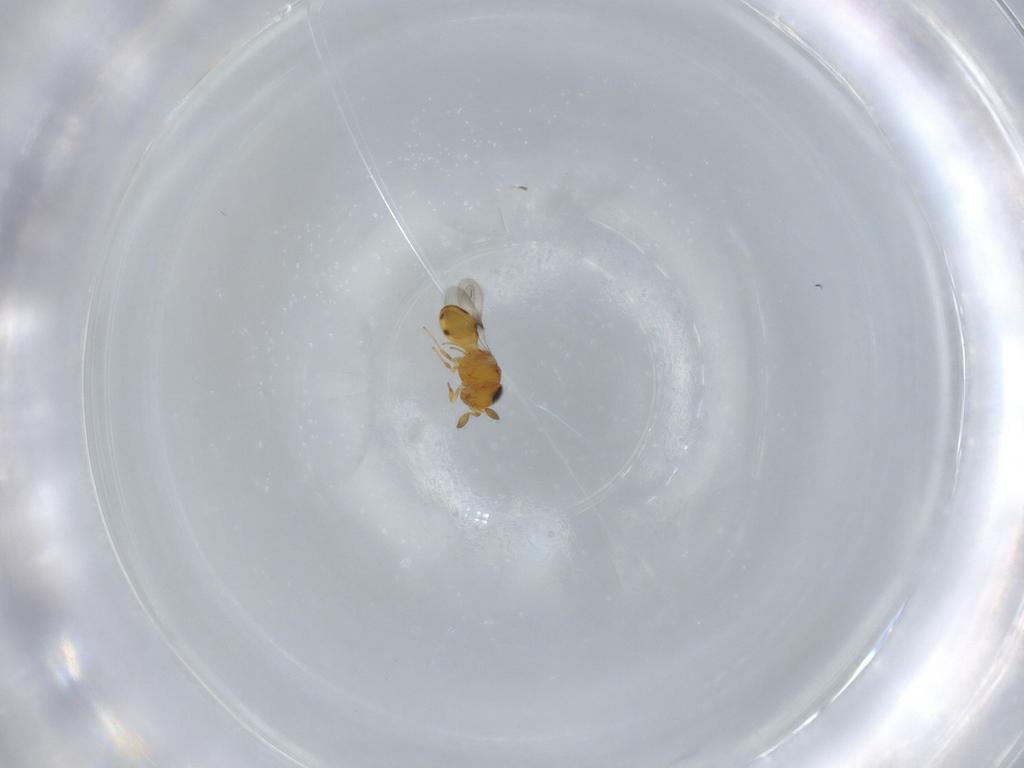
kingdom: Animalia
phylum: Arthropoda
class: Insecta
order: Hymenoptera
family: Scelionidae
